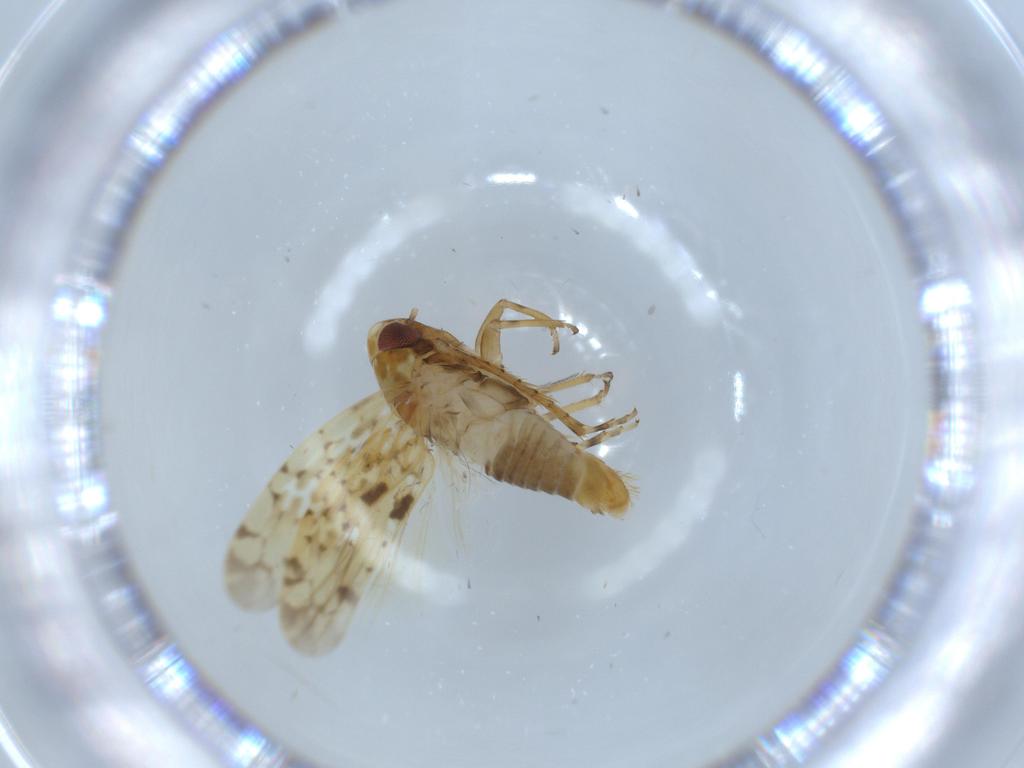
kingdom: Animalia
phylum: Arthropoda
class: Insecta
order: Hemiptera
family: Cicadellidae
